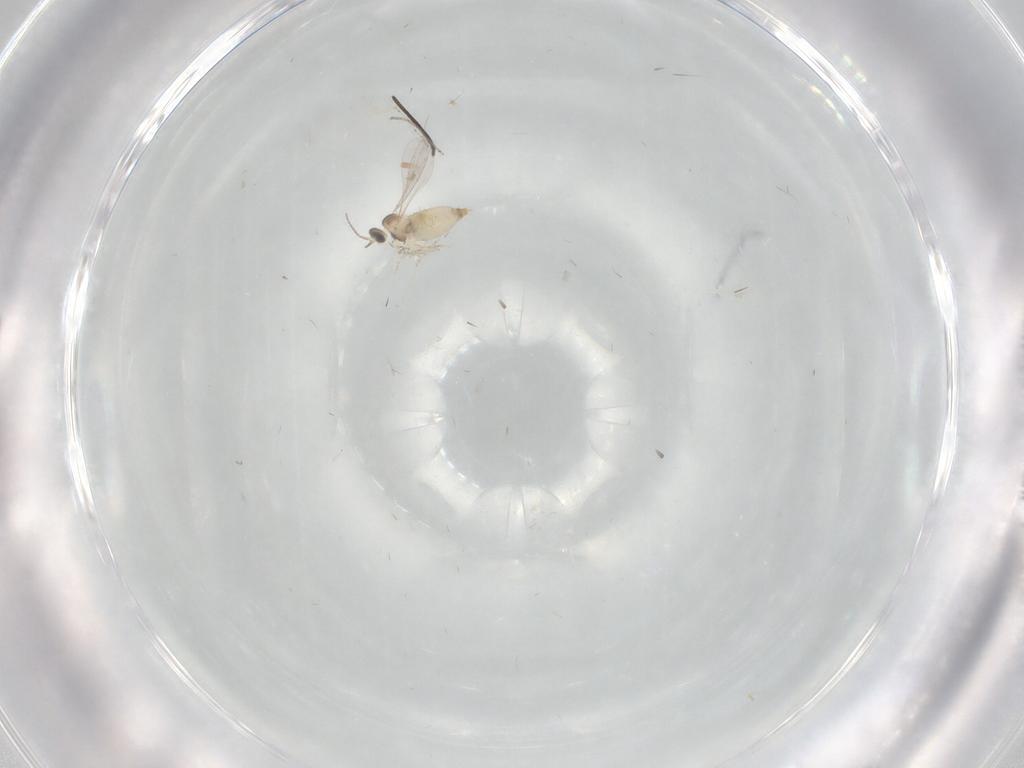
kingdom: Animalia
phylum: Arthropoda
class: Insecta
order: Diptera
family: Sciaridae
